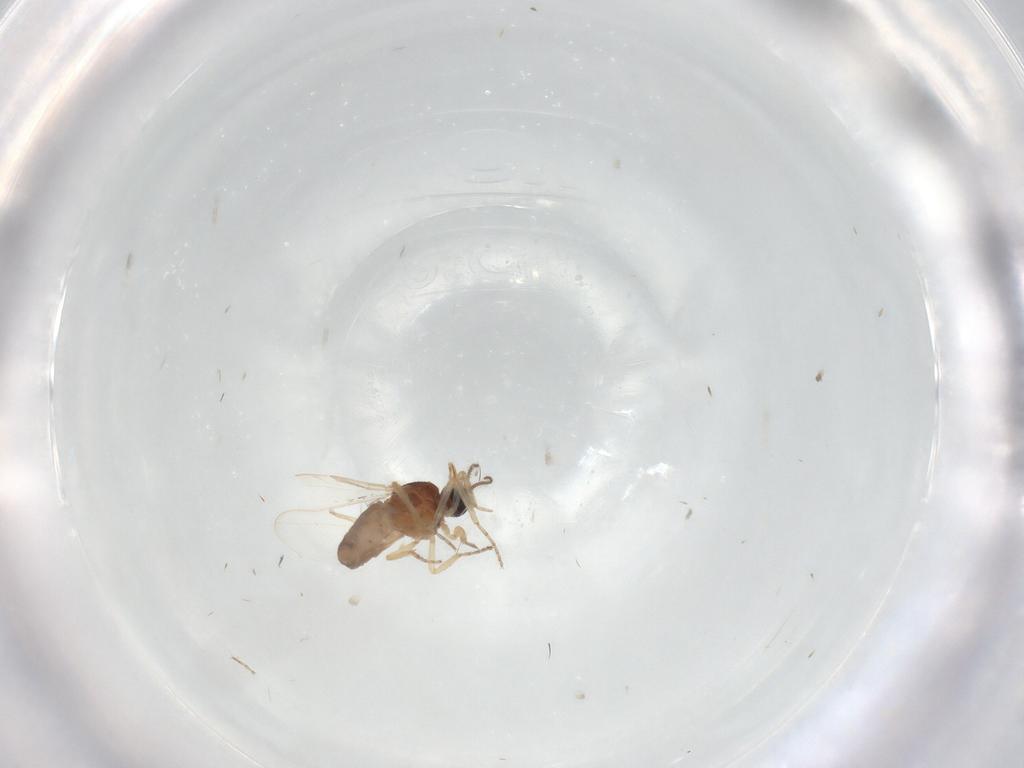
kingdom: Animalia
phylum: Arthropoda
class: Insecta
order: Diptera
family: Ceratopogonidae
